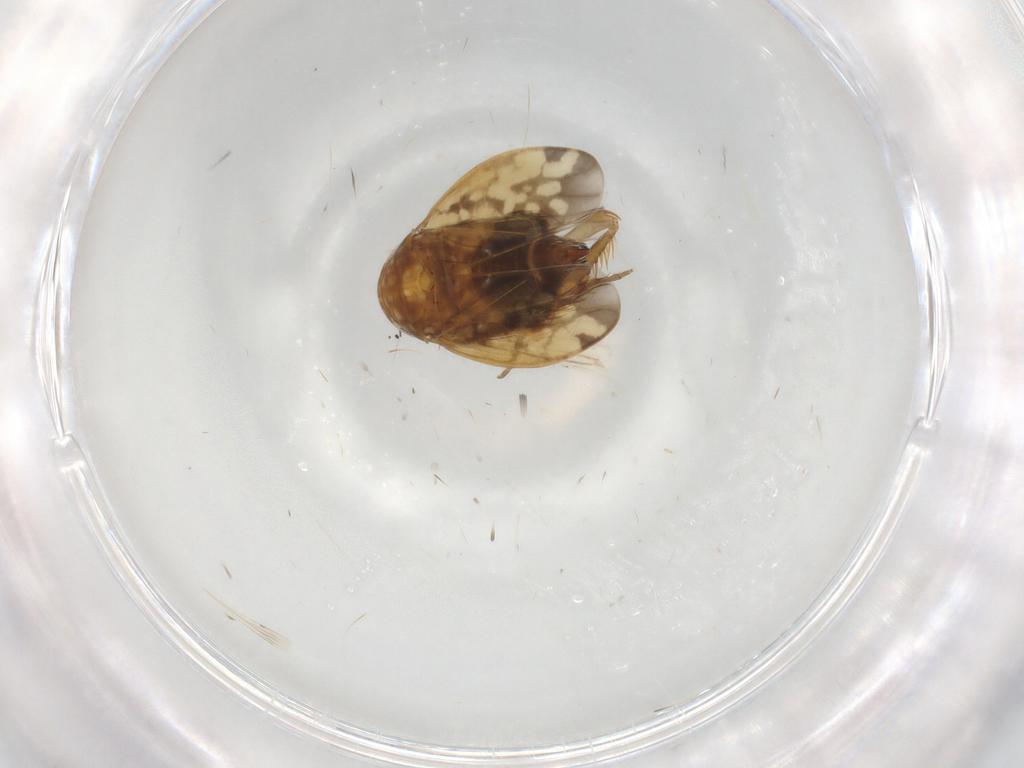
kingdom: Animalia
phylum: Arthropoda
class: Insecta
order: Hemiptera
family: Cicadellidae
